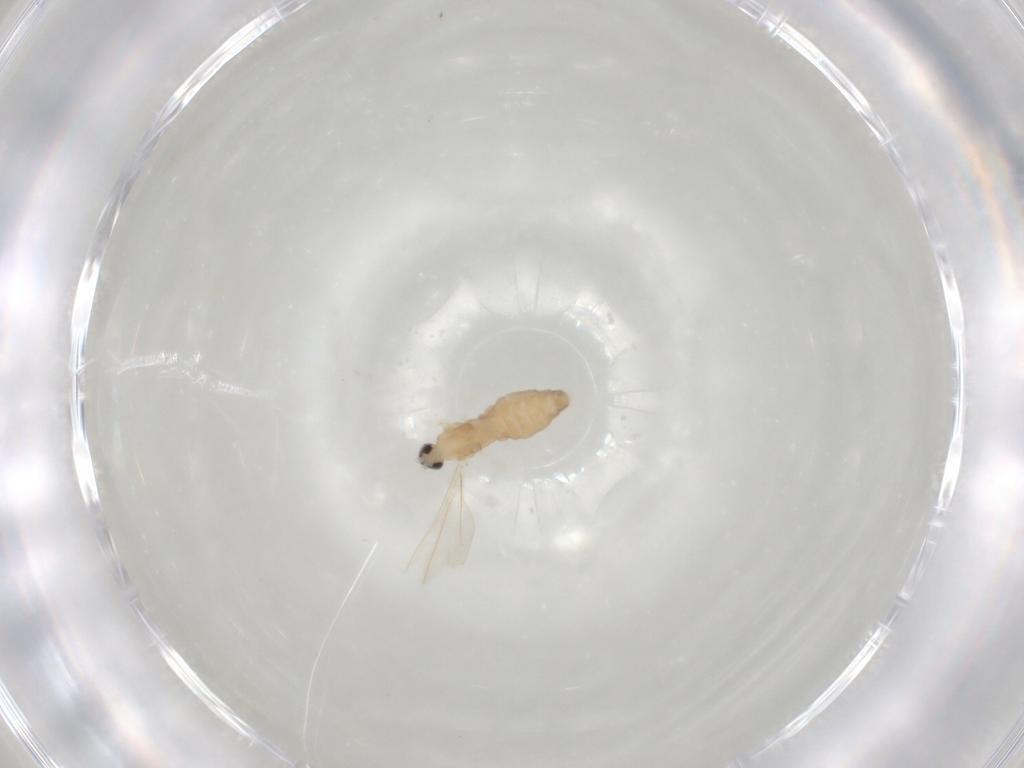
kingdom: Animalia
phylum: Arthropoda
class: Insecta
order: Diptera
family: Cecidomyiidae
